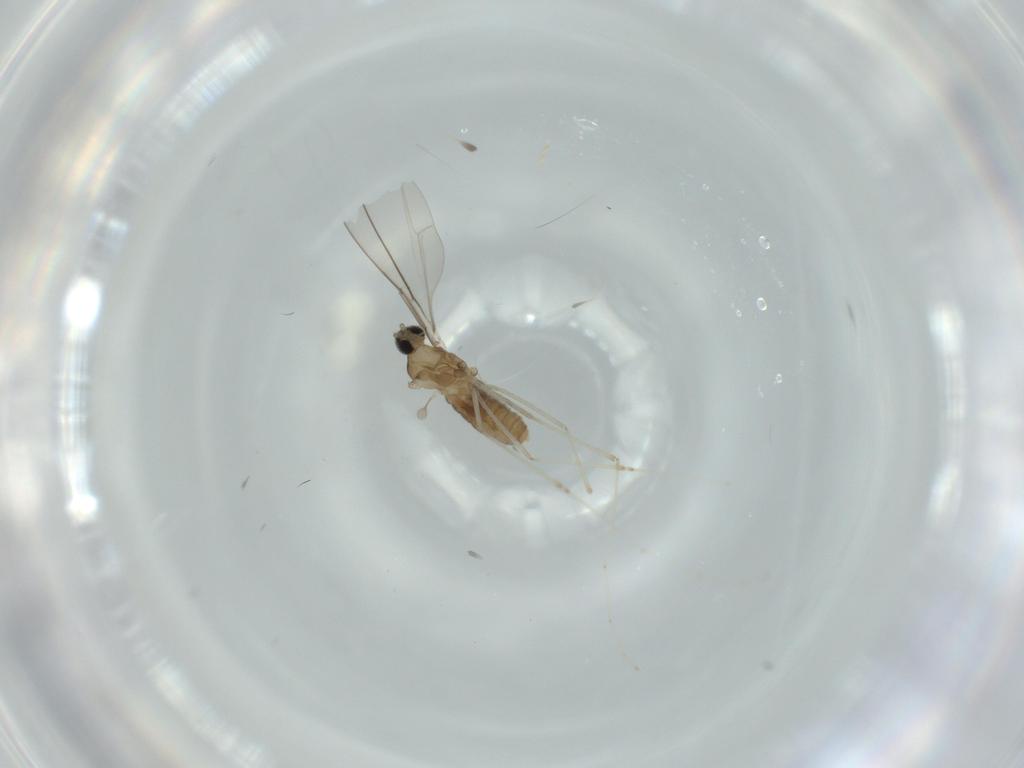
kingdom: Animalia
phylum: Arthropoda
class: Insecta
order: Diptera
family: Cecidomyiidae
